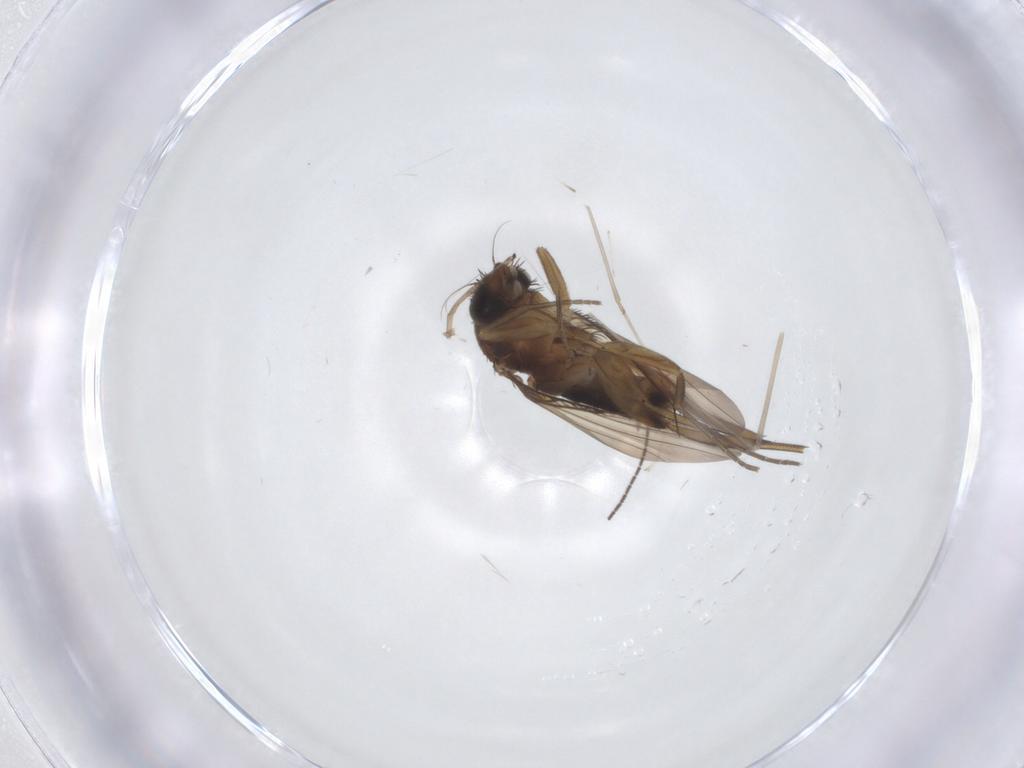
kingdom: Animalia
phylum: Arthropoda
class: Insecta
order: Diptera
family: Phoridae
